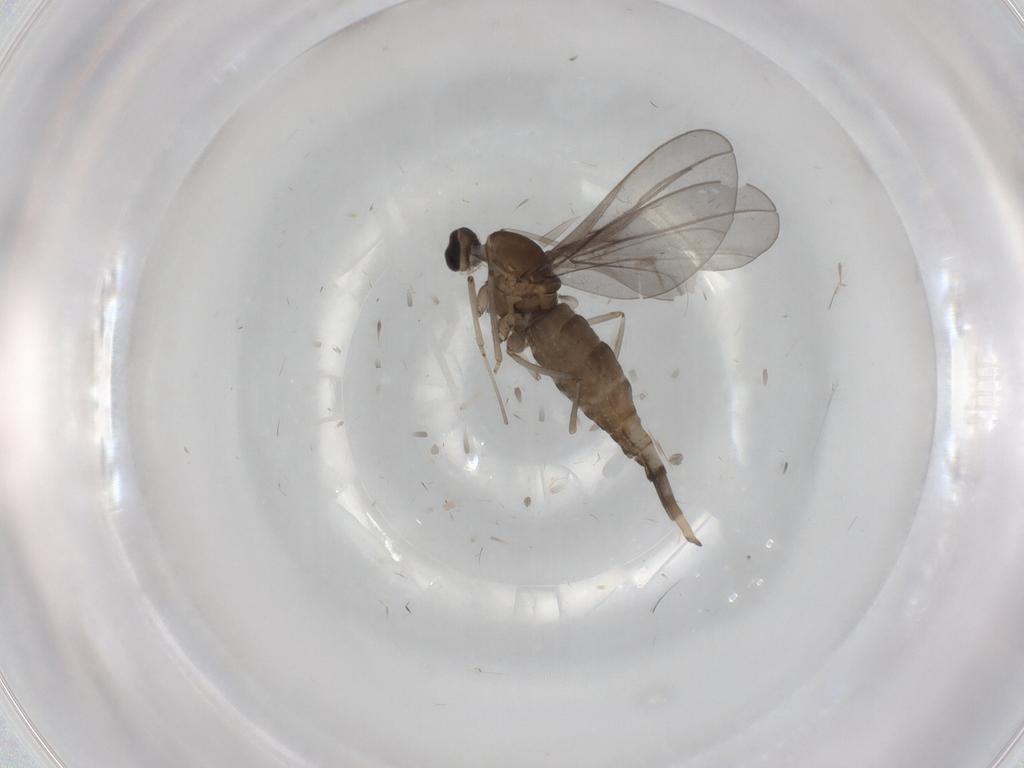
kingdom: Animalia
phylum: Arthropoda
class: Insecta
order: Diptera
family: Cecidomyiidae
